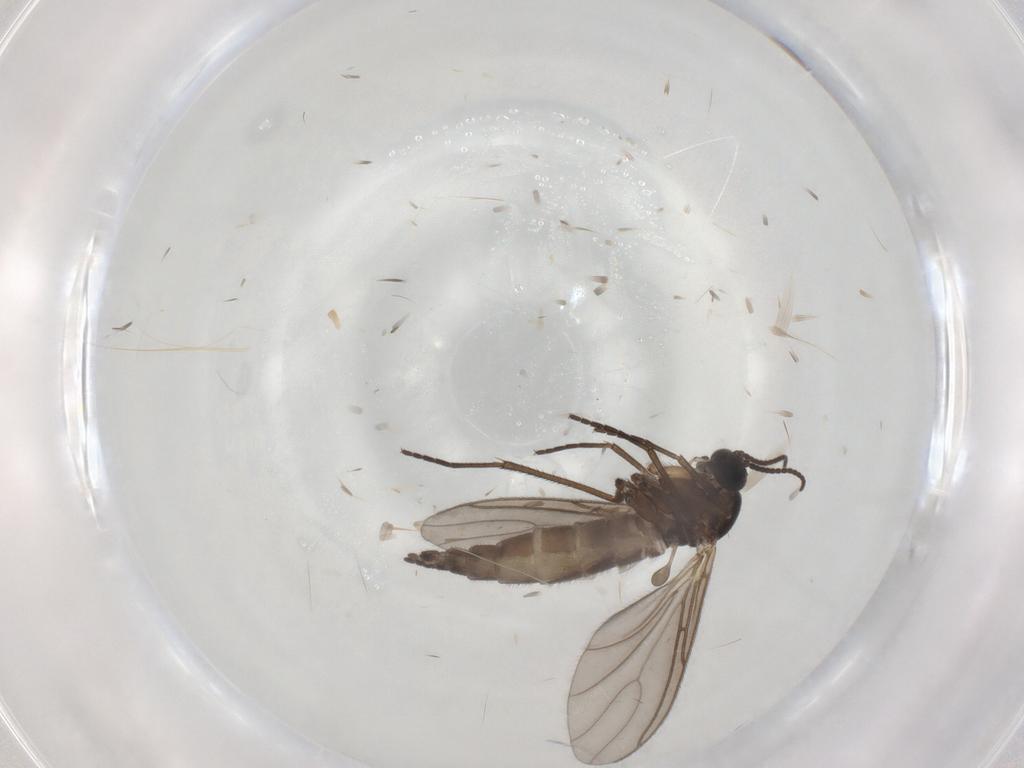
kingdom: Animalia
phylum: Arthropoda
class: Insecta
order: Diptera
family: Sciaridae
